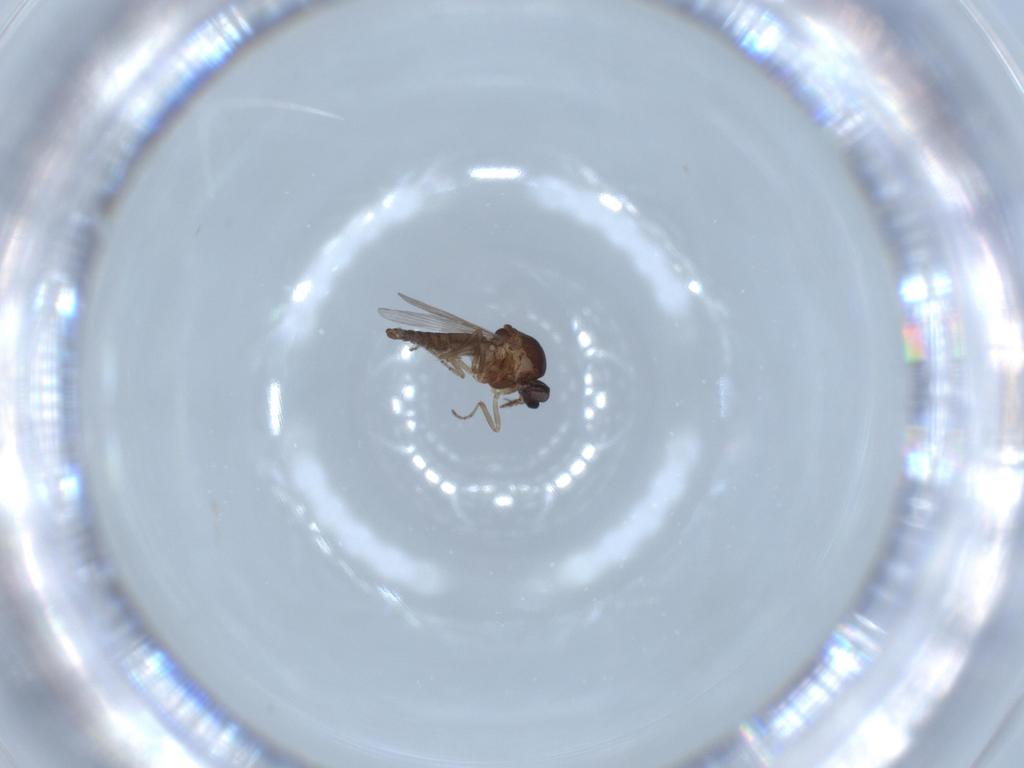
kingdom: Animalia
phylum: Arthropoda
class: Insecta
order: Diptera
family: Ceratopogonidae
